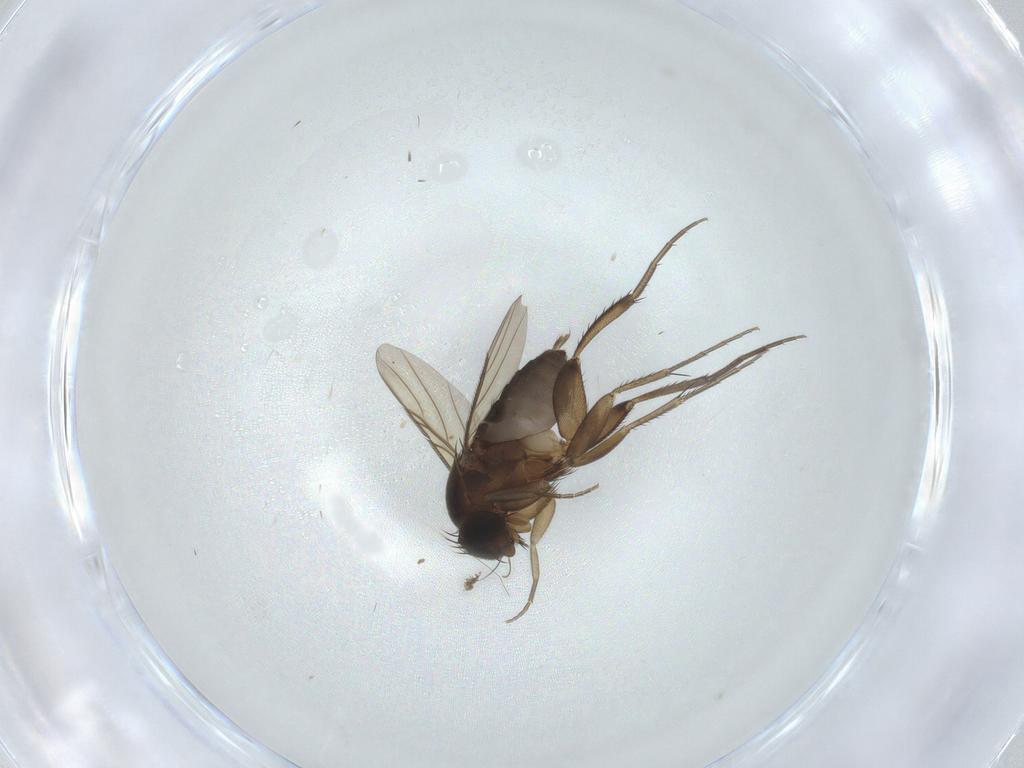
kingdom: Animalia
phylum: Arthropoda
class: Insecta
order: Diptera
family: Phoridae
